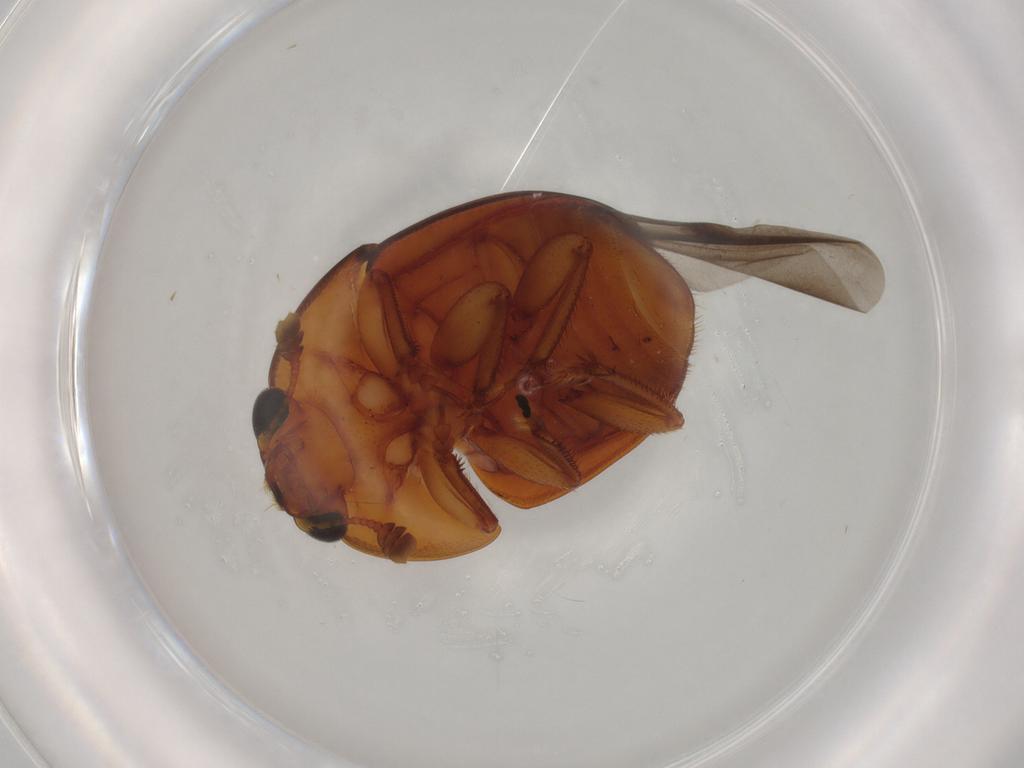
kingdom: Animalia
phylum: Arthropoda
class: Insecta
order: Coleoptera
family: Nitidulidae
